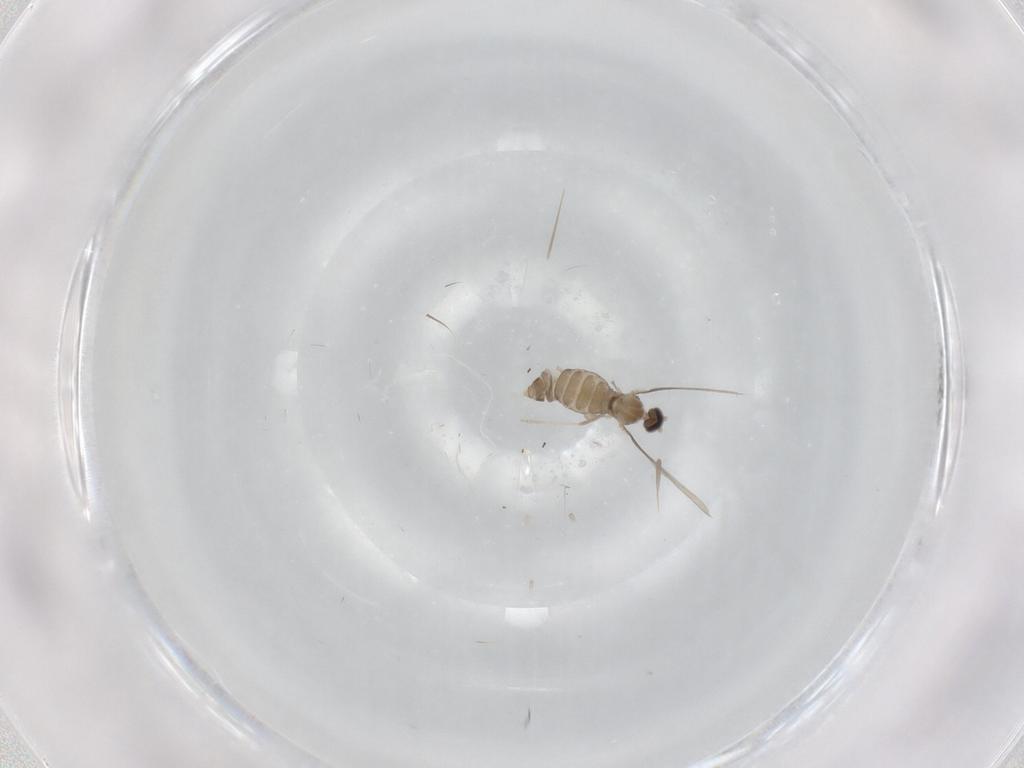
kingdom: Animalia
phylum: Arthropoda
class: Insecta
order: Diptera
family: Cecidomyiidae
